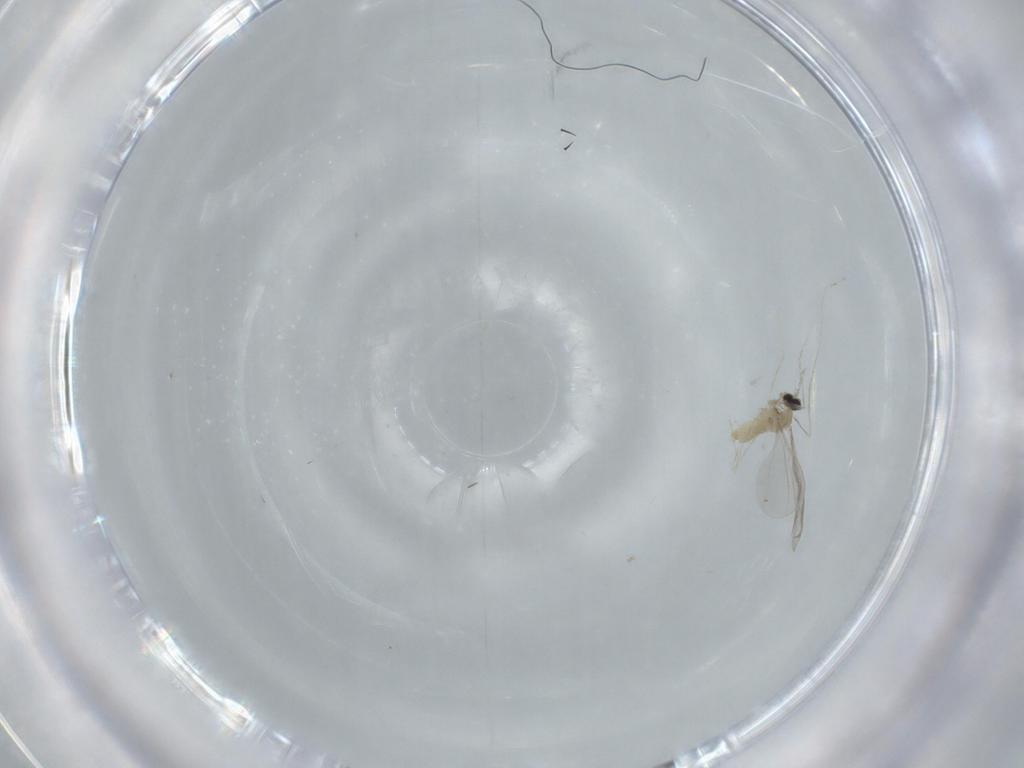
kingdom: Animalia
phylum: Arthropoda
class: Insecta
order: Diptera
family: Cecidomyiidae
